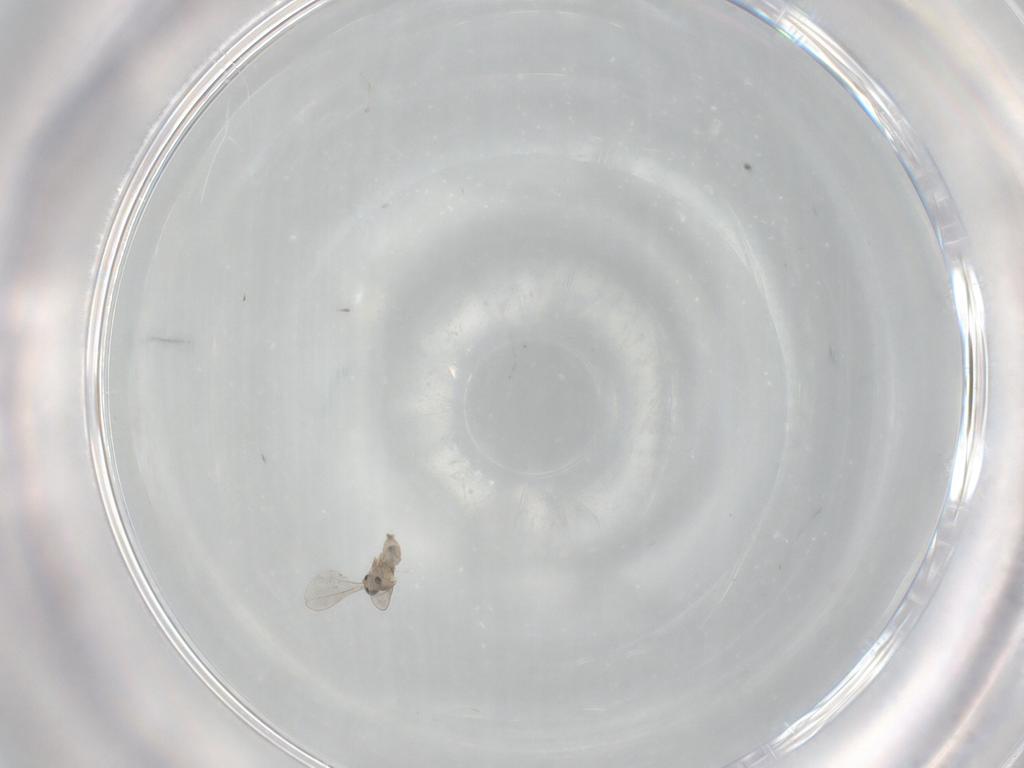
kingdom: Animalia
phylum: Arthropoda
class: Insecta
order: Diptera
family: Cecidomyiidae
